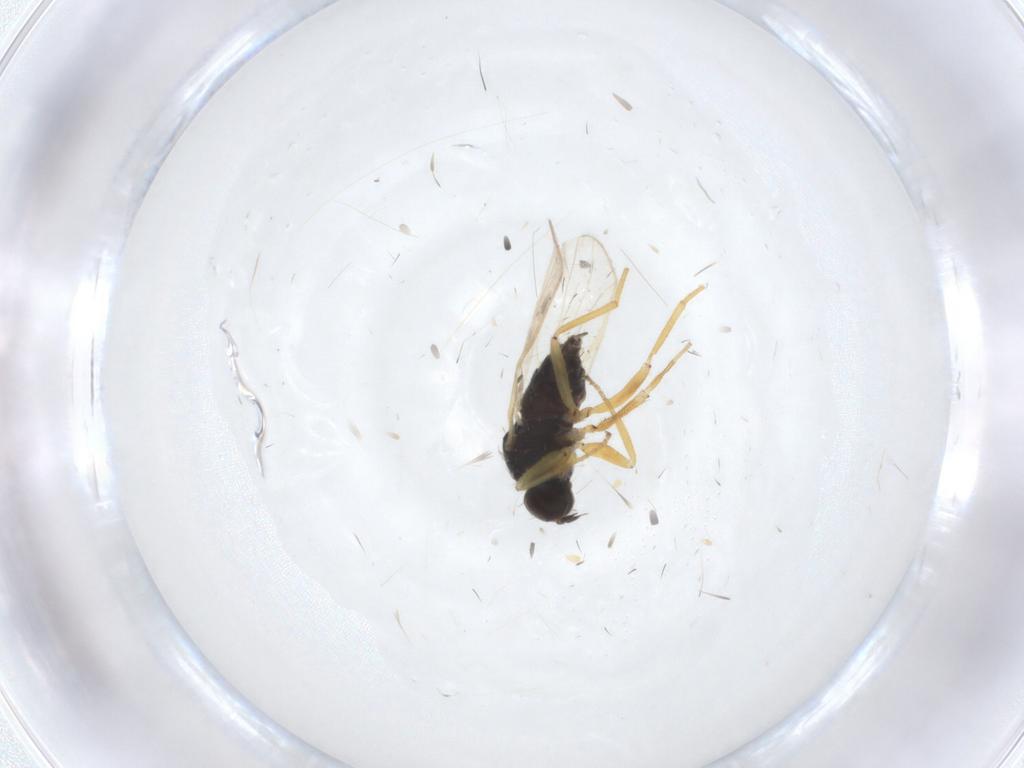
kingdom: Animalia
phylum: Arthropoda
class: Insecta
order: Diptera
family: Hybotidae
